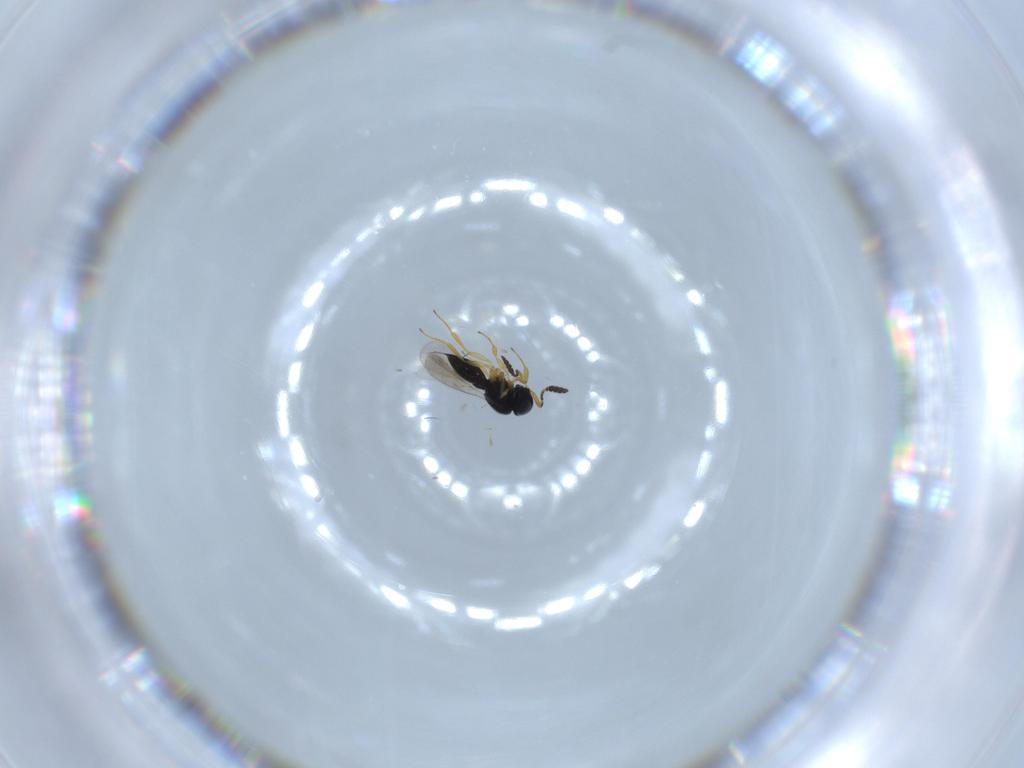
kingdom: Animalia
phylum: Arthropoda
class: Insecta
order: Hymenoptera
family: Scelionidae
